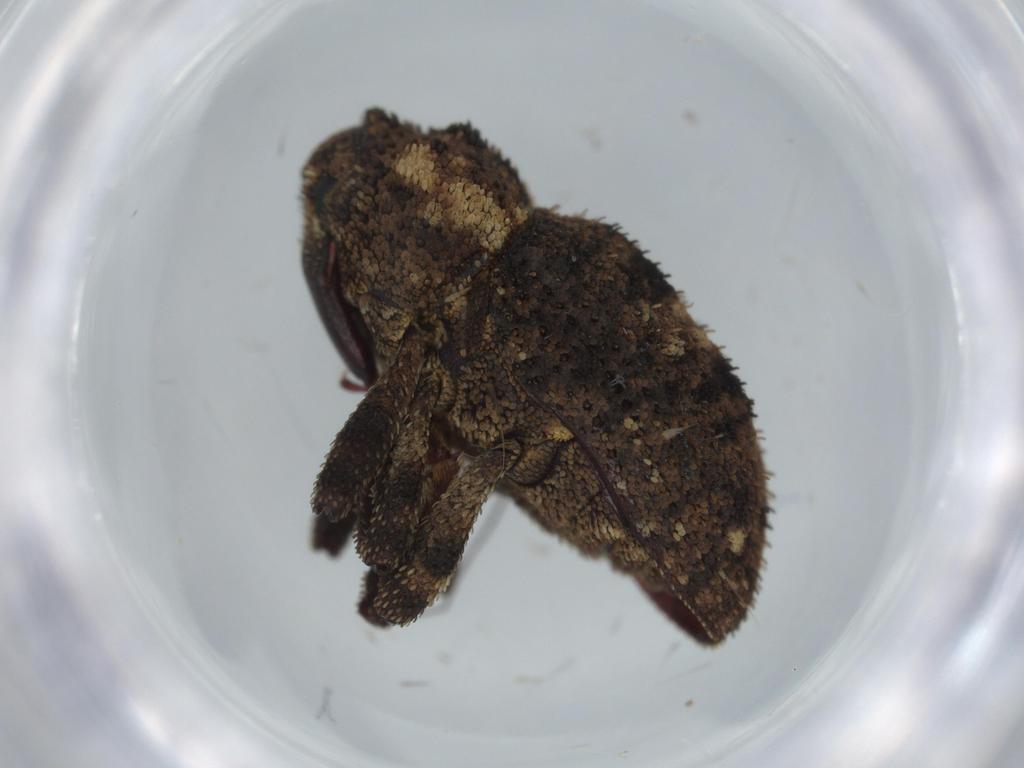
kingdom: Animalia
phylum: Arthropoda
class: Insecta
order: Coleoptera
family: Curculionidae
